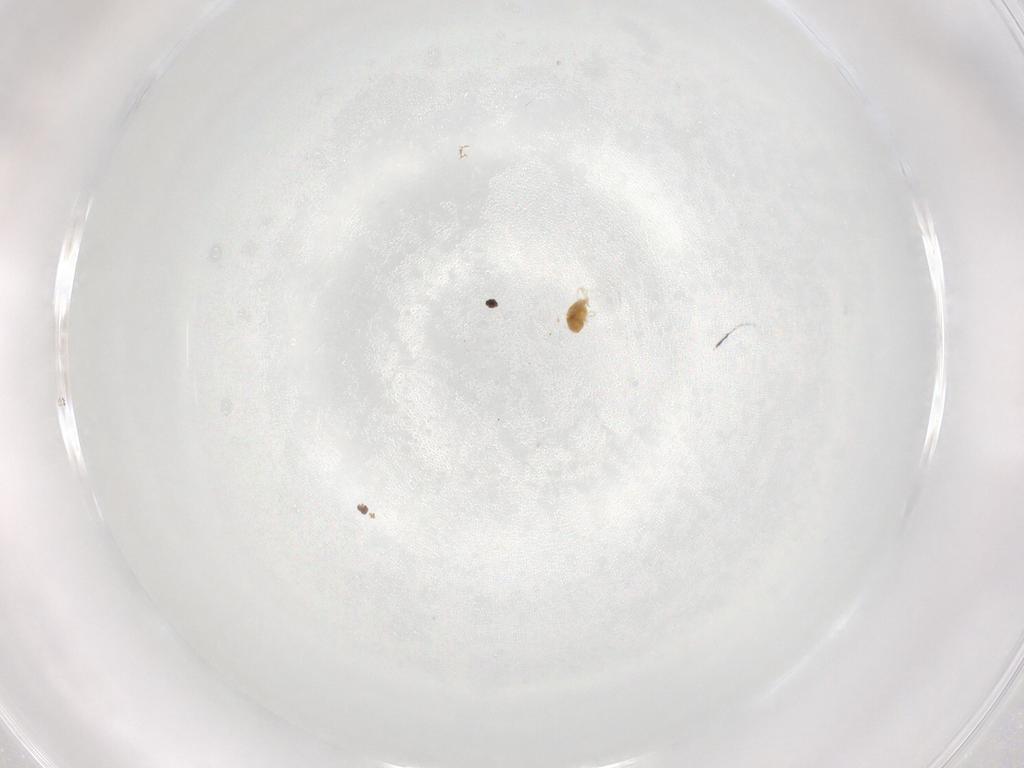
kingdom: Animalia
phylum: Arthropoda
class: Arachnida
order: Trombidiformes
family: Eupodidae
